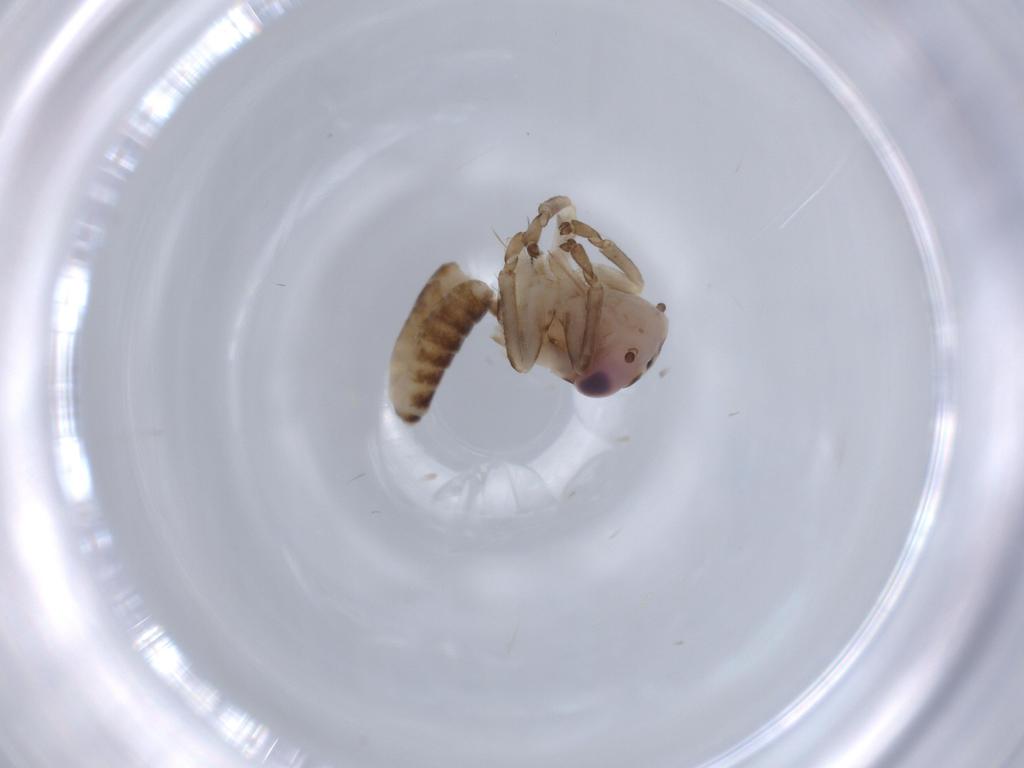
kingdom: Animalia
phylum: Arthropoda
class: Insecta
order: Hemiptera
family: Cicadellidae
